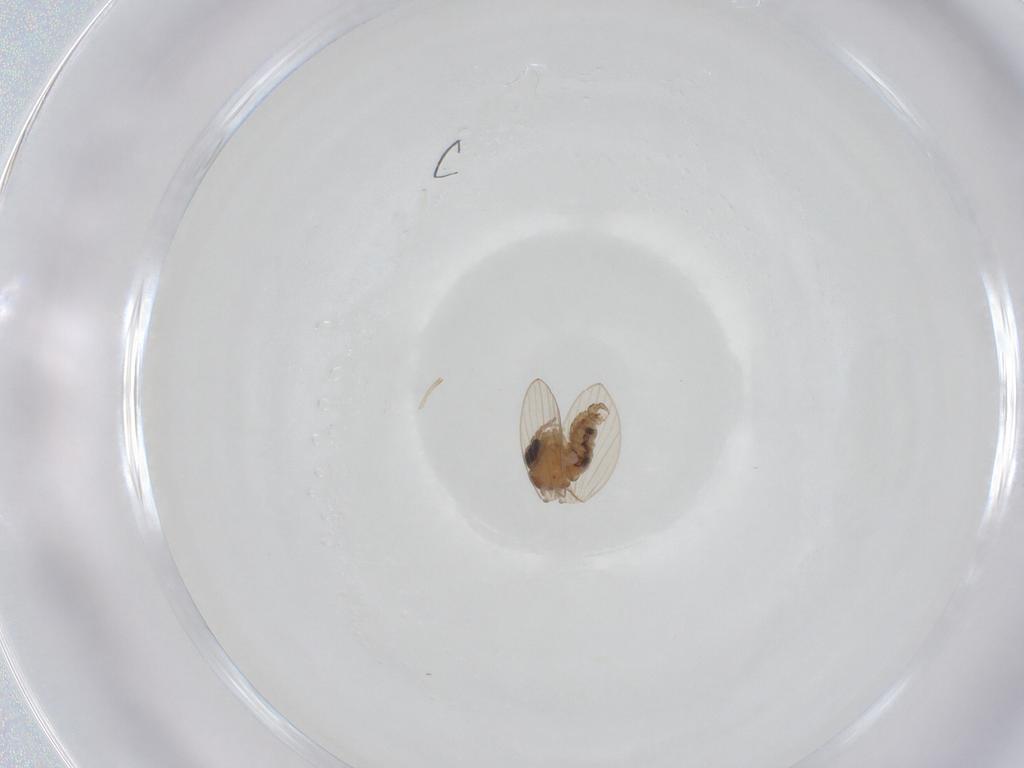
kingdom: Animalia
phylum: Arthropoda
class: Insecta
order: Diptera
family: Psychodidae
